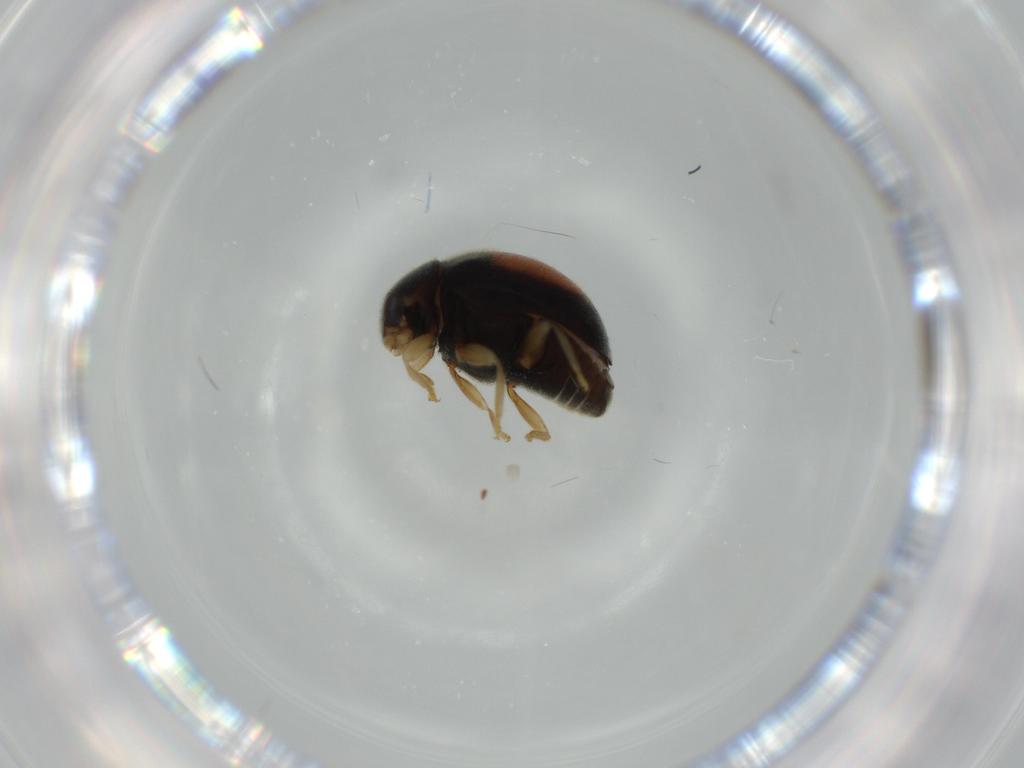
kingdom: Animalia
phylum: Arthropoda
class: Insecta
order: Coleoptera
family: Coccinellidae
